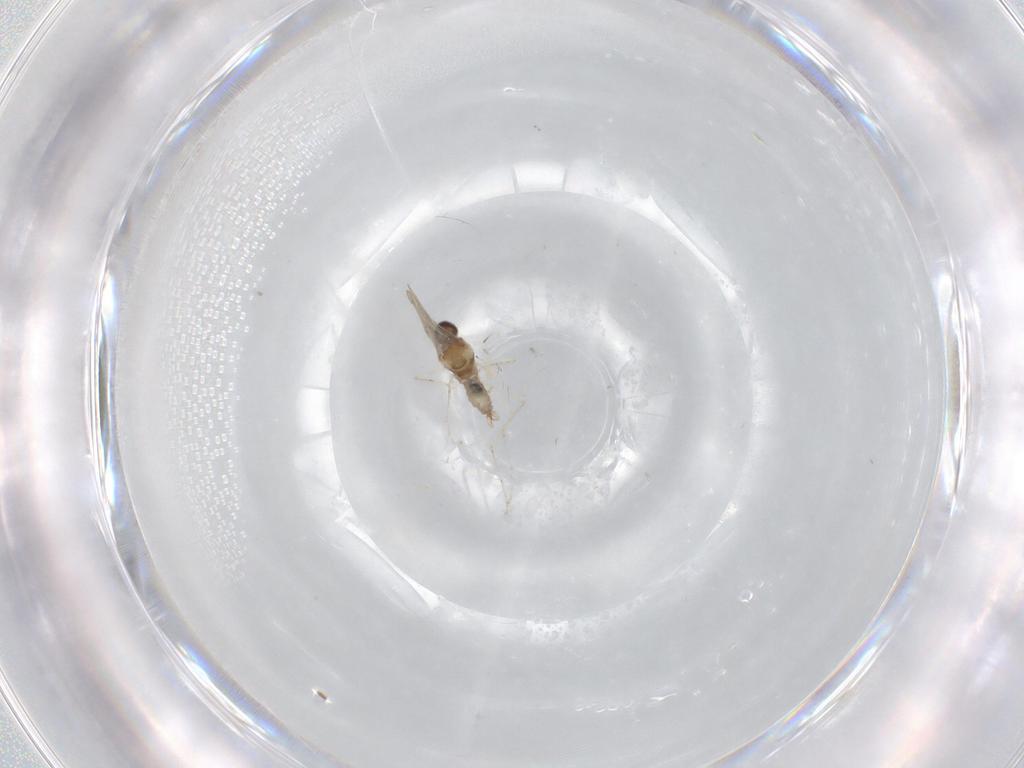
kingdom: Animalia
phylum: Arthropoda
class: Insecta
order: Diptera
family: Cecidomyiidae
